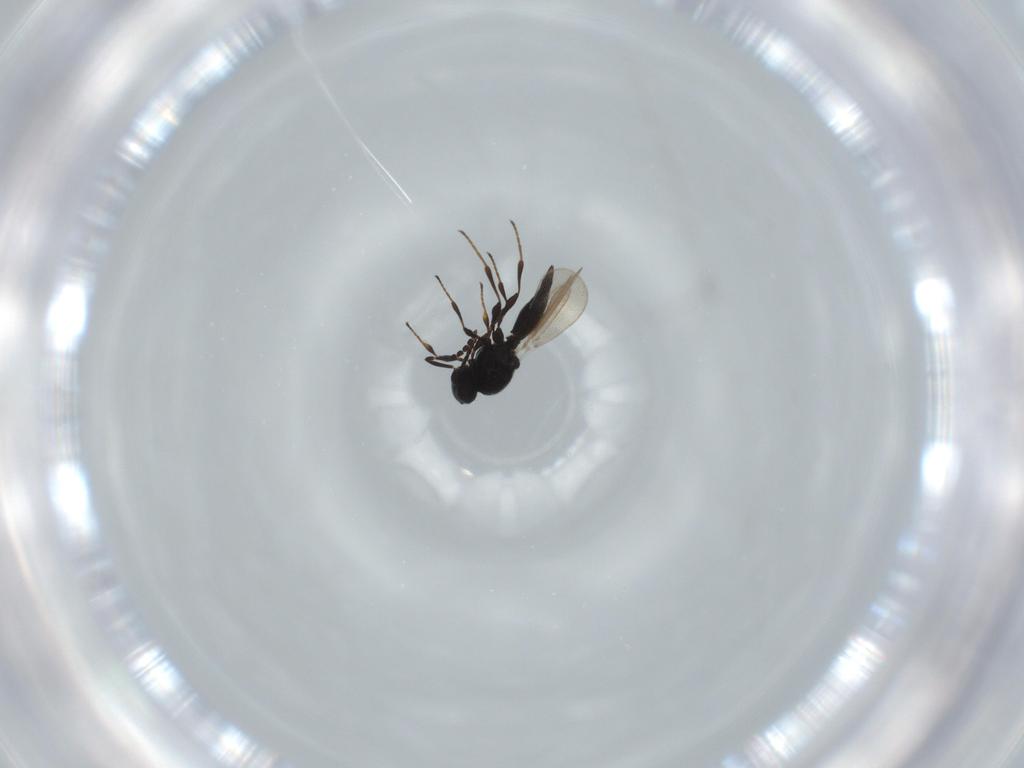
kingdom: Animalia
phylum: Arthropoda
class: Insecta
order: Hymenoptera
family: Platygastridae
